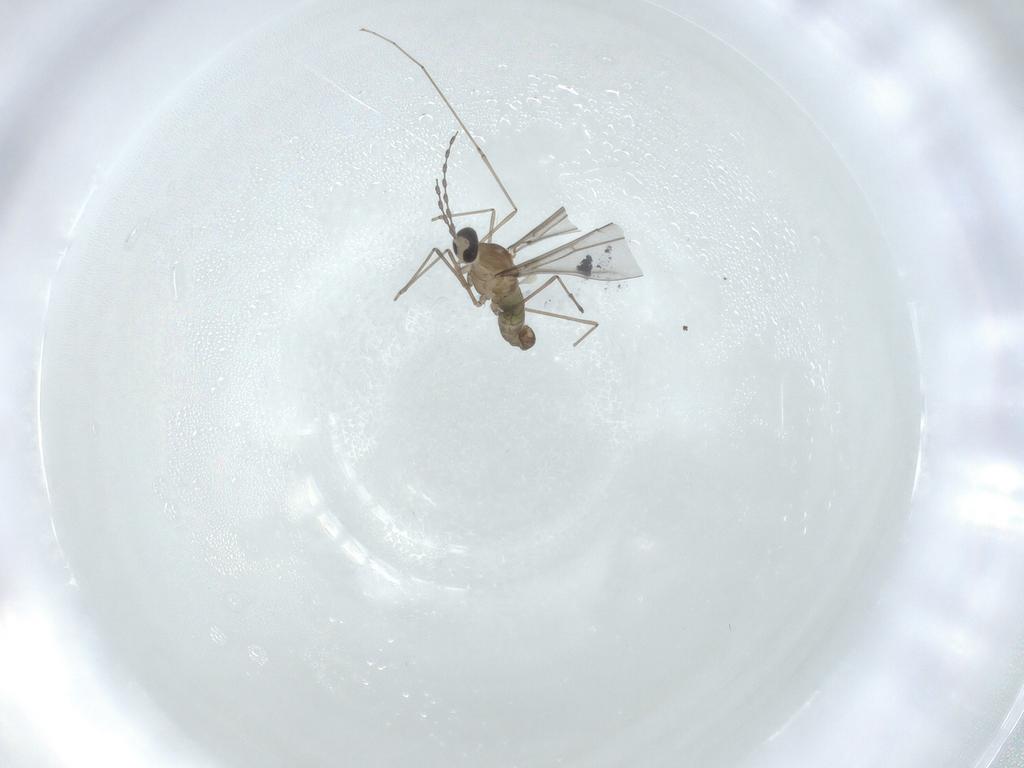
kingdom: Animalia
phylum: Arthropoda
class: Insecta
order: Diptera
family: Cecidomyiidae
